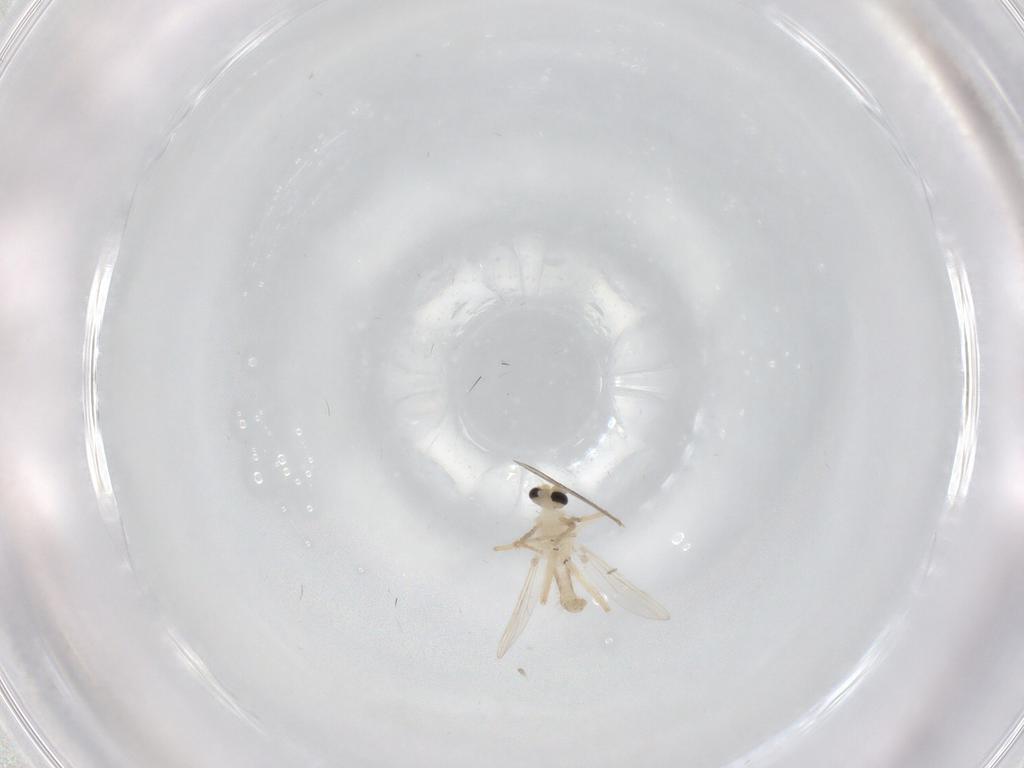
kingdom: Animalia
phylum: Arthropoda
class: Insecta
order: Diptera
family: Chironomidae
